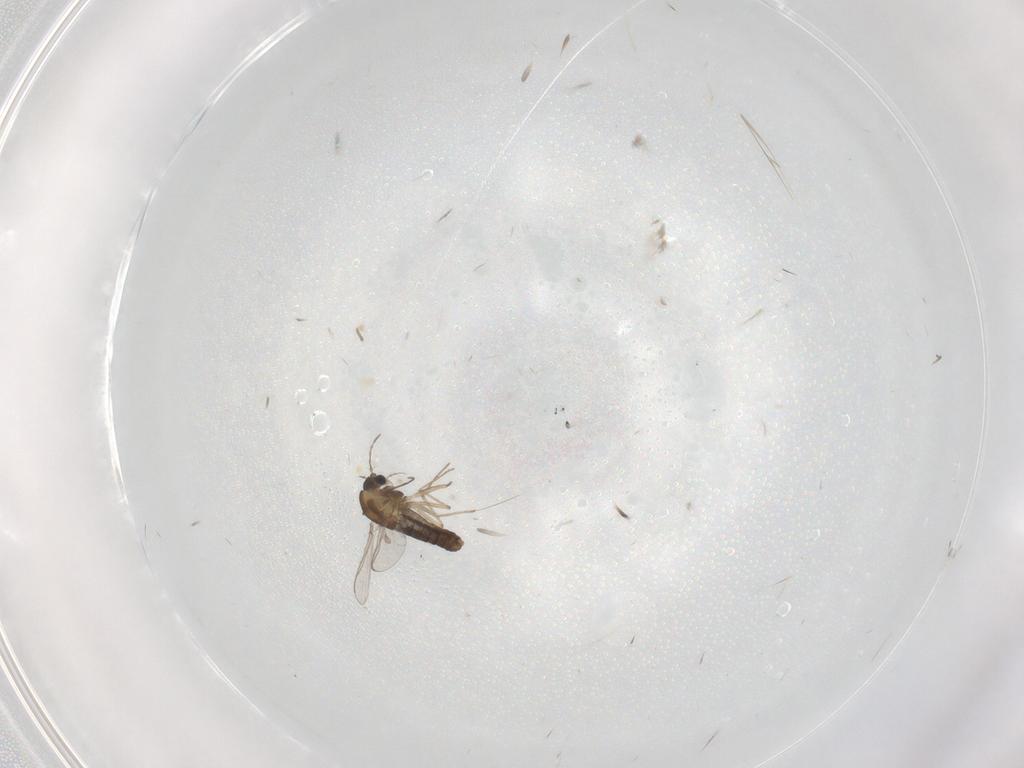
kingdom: Animalia
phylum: Arthropoda
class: Insecta
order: Diptera
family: Chironomidae
